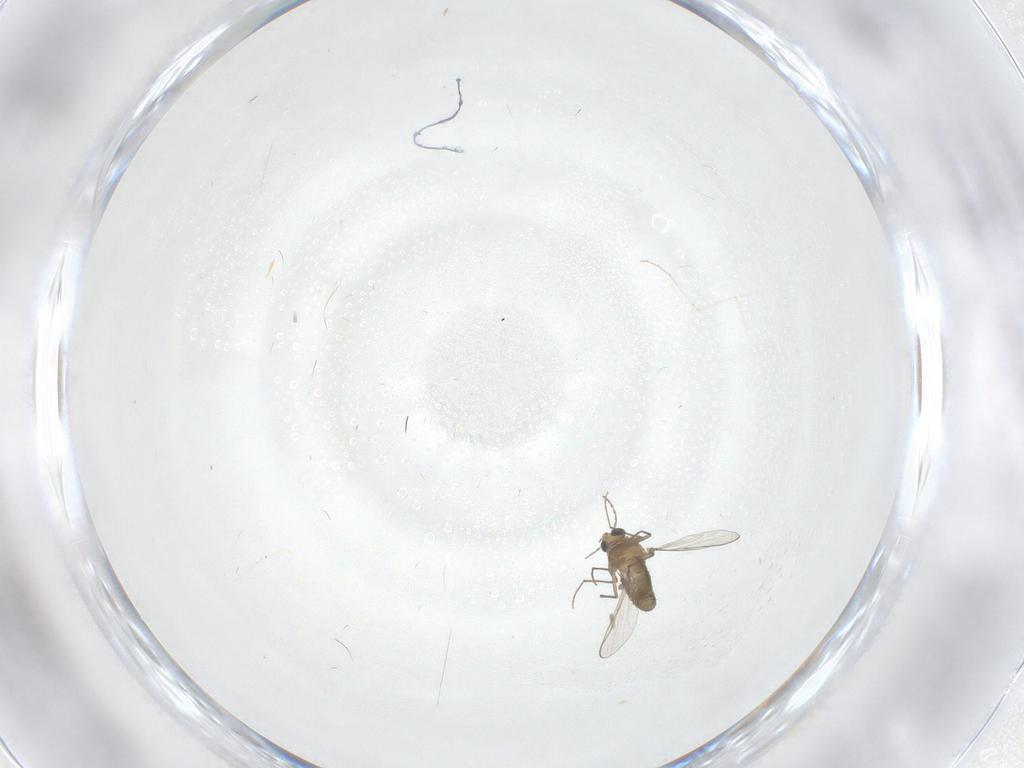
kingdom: Animalia
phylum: Arthropoda
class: Insecta
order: Diptera
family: Chironomidae
